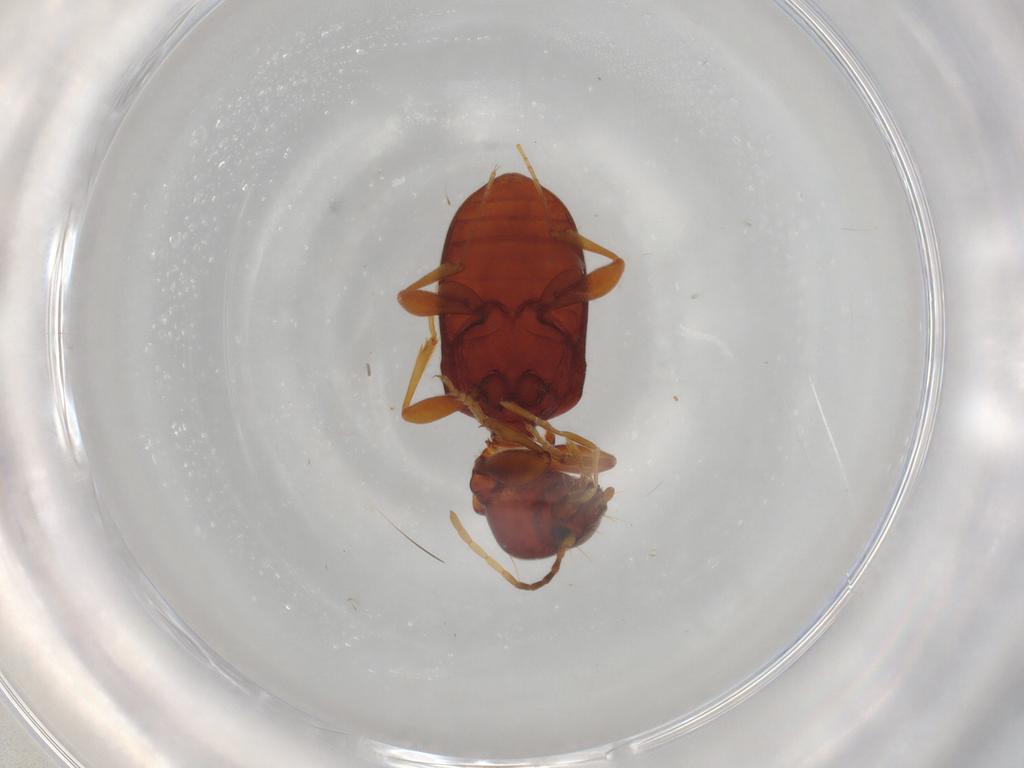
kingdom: Animalia
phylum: Arthropoda
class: Insecta
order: Coleoptera
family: Carabidae
